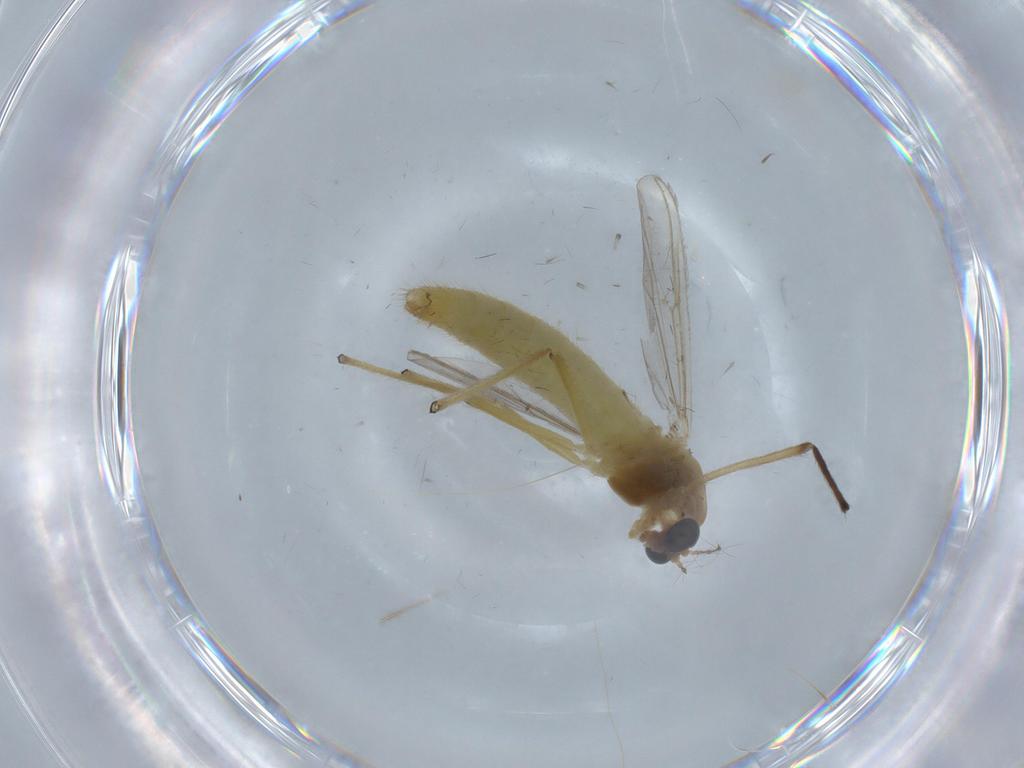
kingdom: Animalia
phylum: Arthropoda
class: Insecta
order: Diptera
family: Chironomidae
